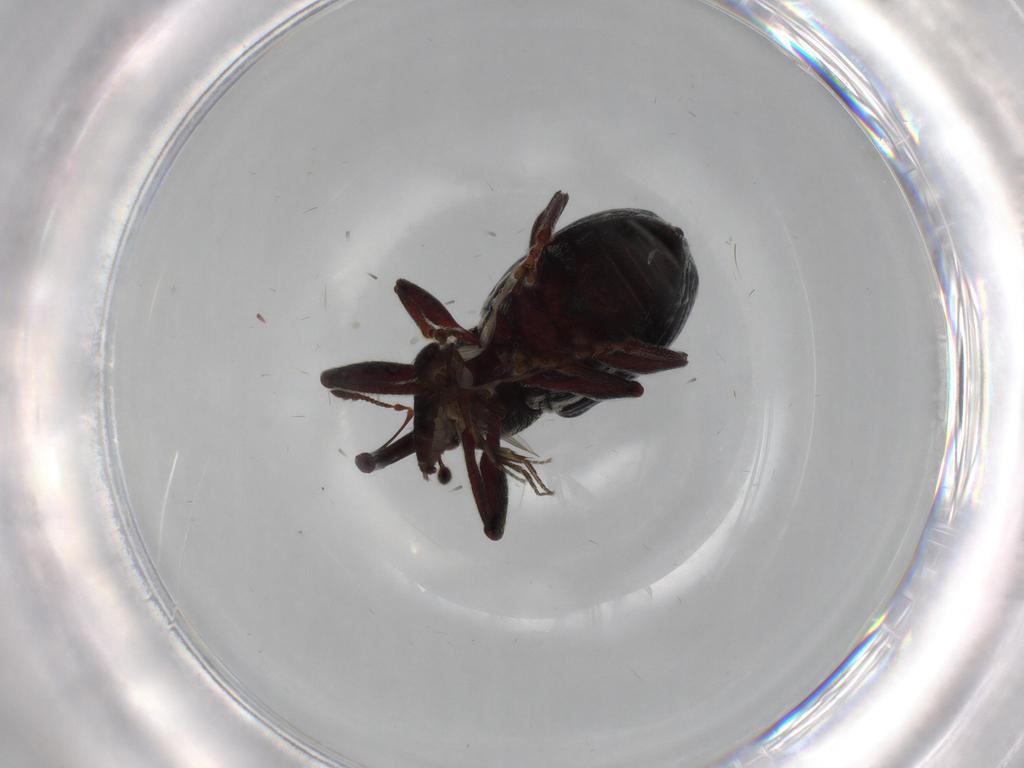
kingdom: Animalia
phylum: Arthropoda
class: Insecta
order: Coleoptera
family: Curculionidae
